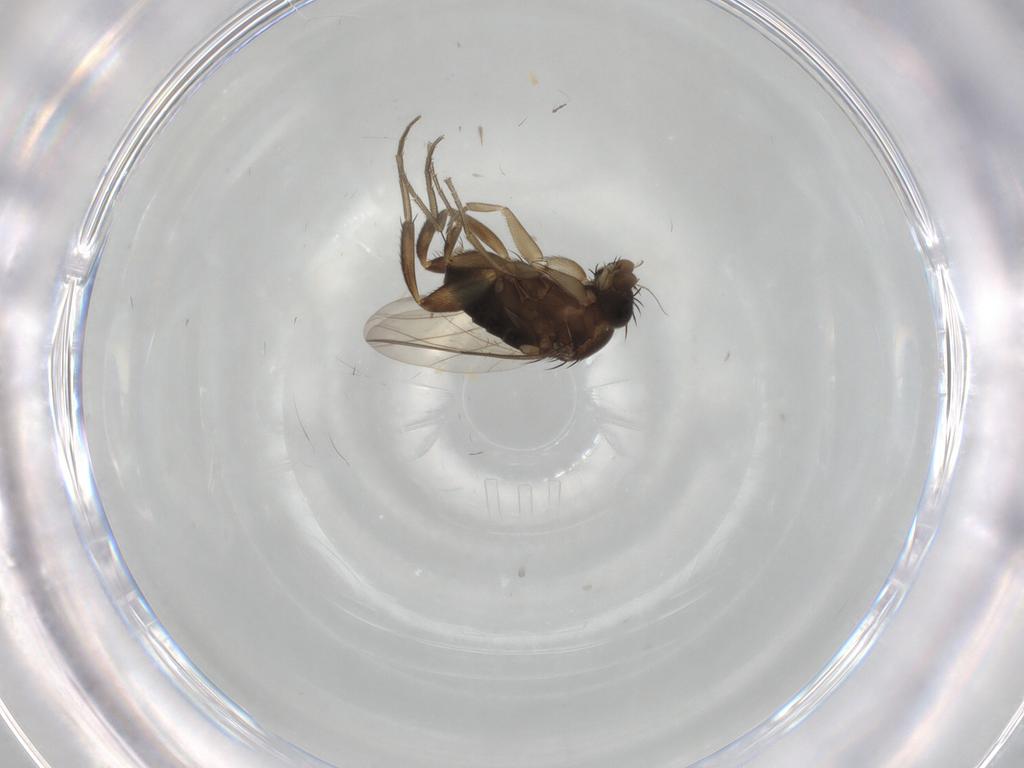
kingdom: Animalia
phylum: Arthropoda
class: Insecta
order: Diptera
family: Phoridae
